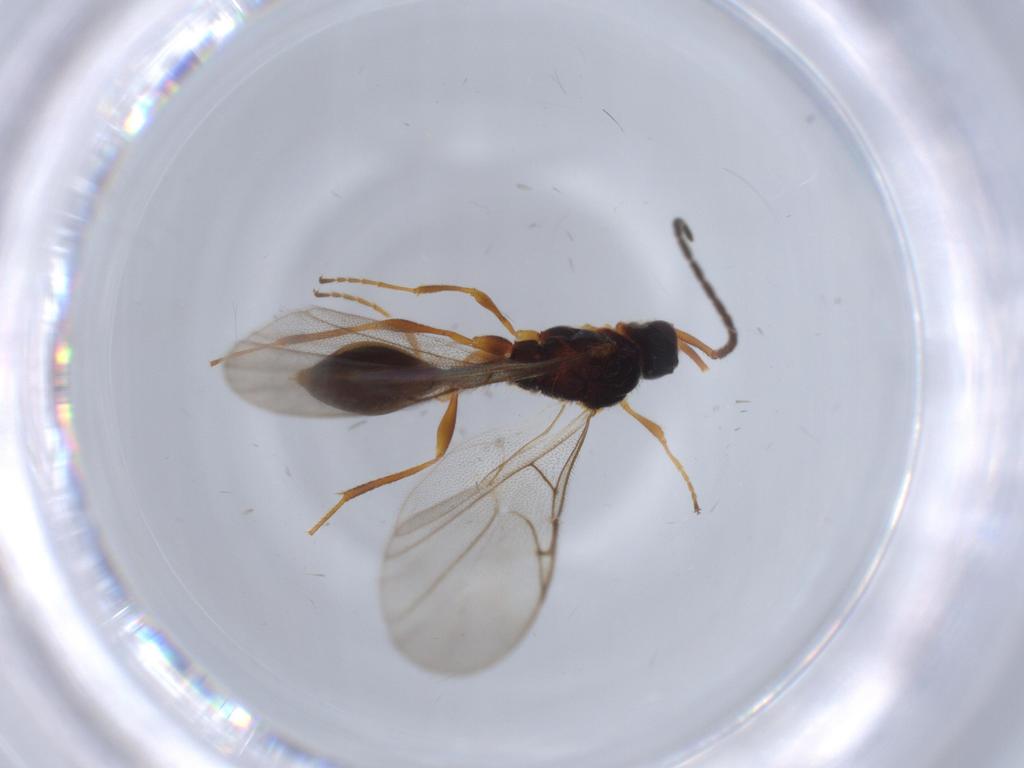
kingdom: Animalia
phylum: Arthropoda
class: Insecta
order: Hymenoptera
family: Diapriidae
